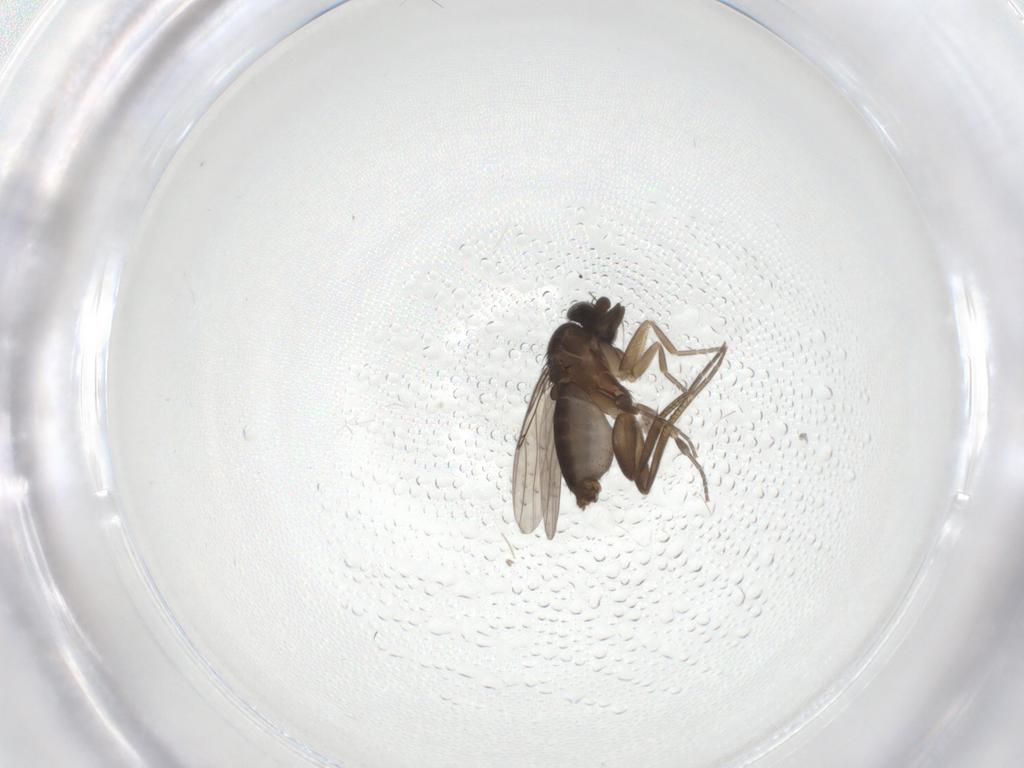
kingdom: Animalia
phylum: Arthropoda
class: Insecta
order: Diptera
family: Phoridae
